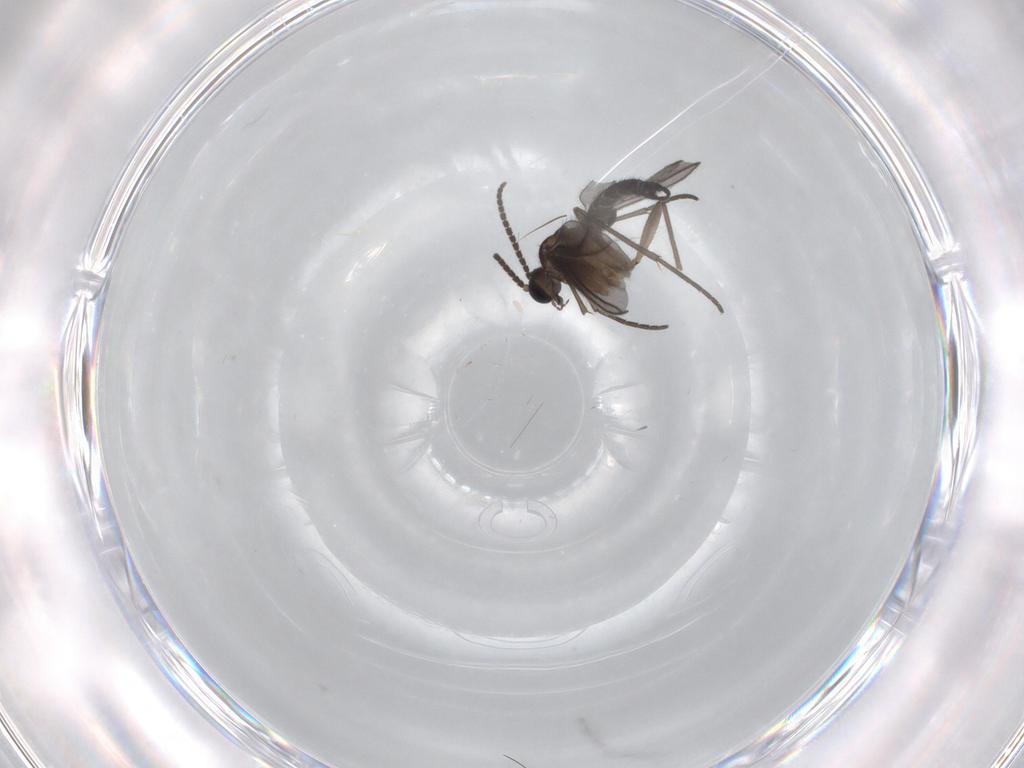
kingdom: Animalia
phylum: Arthropoda
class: Insecta
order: Diptera
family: Sciaridae
